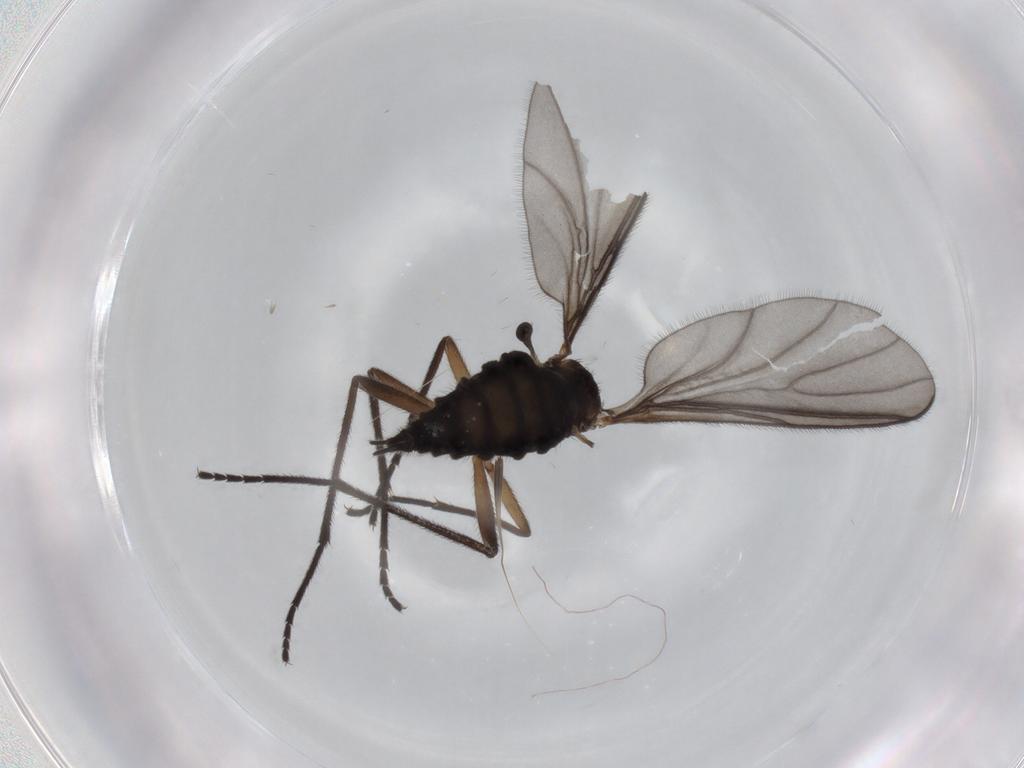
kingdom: Animalia
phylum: Arthropoda
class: Insecta
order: Diptera
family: Sciaridae
